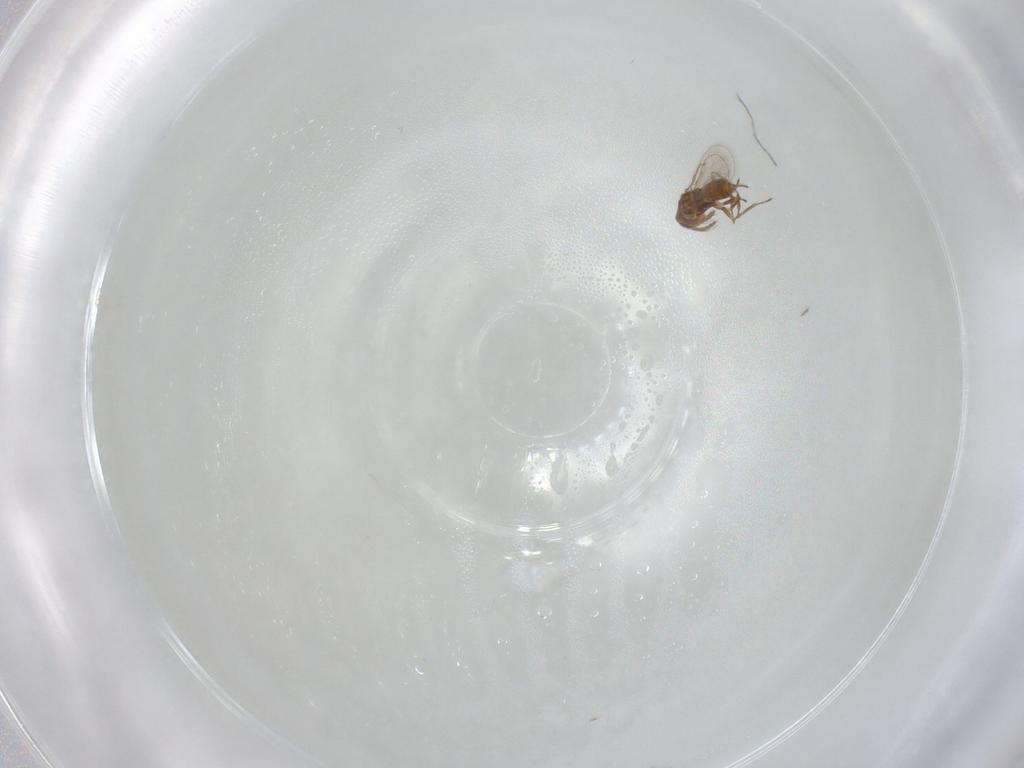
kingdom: Animalia
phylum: Arthropoda
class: Insecta
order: Hymenoptera
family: Eulophidae
